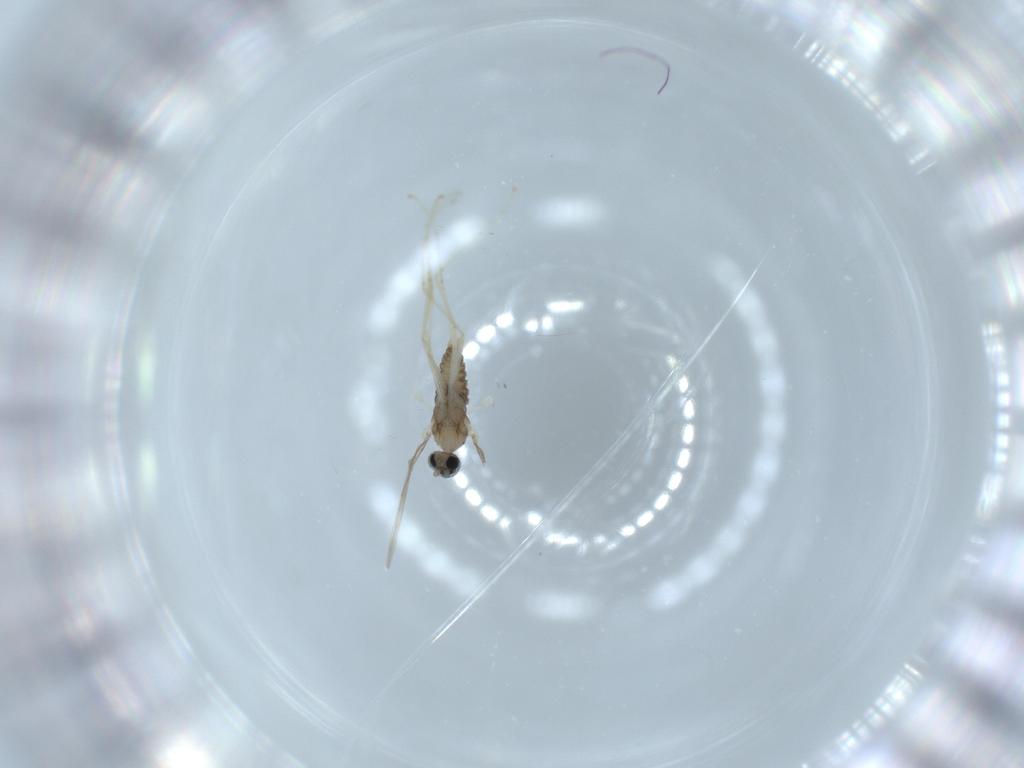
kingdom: Animalia
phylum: Arthropoda
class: Insecta
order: Diptera
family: Cecidomyiidae
